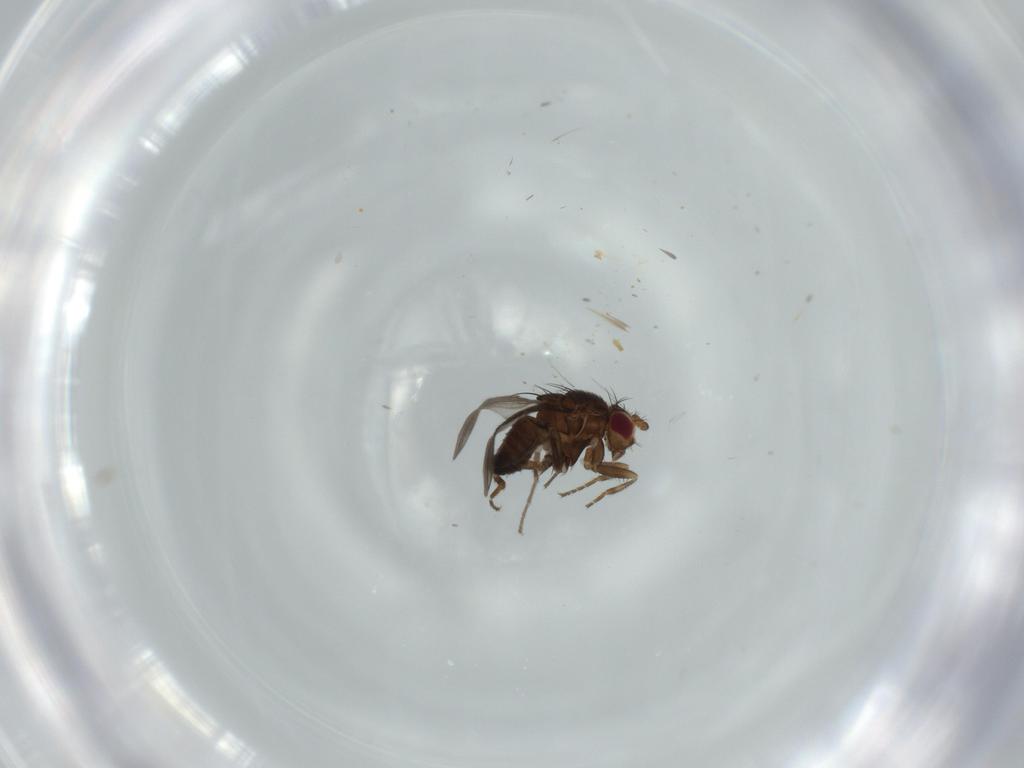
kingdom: Animalia
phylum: Arthropoda
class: Insecta
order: Diptera
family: Sphaeroceridae
